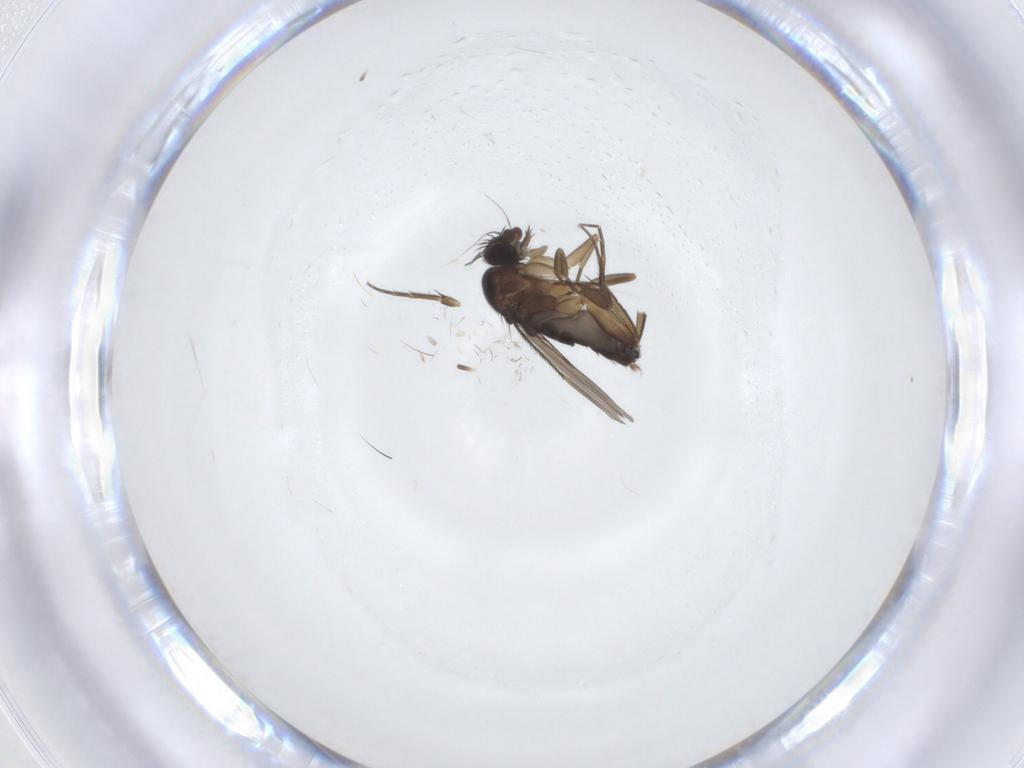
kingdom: Animalia
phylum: Arthropoda
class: Insecta
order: Diptera
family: Phoridae
